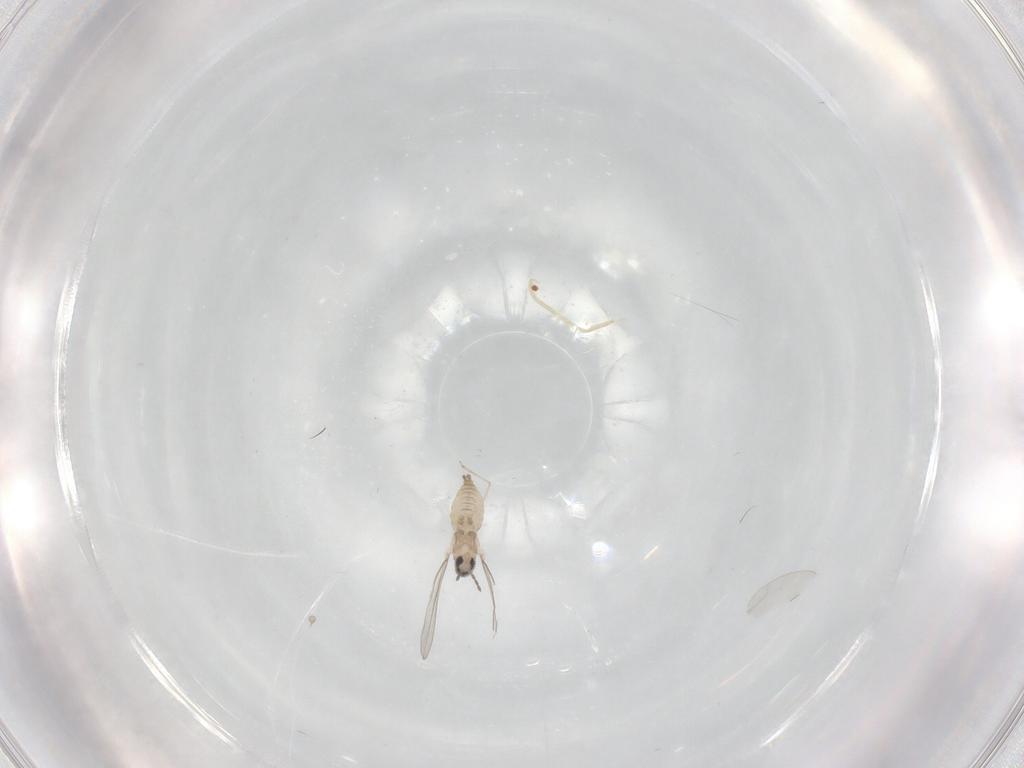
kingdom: Animalia
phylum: Arthropoda
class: Insecta
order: Diptera
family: Cecidomyiidae
